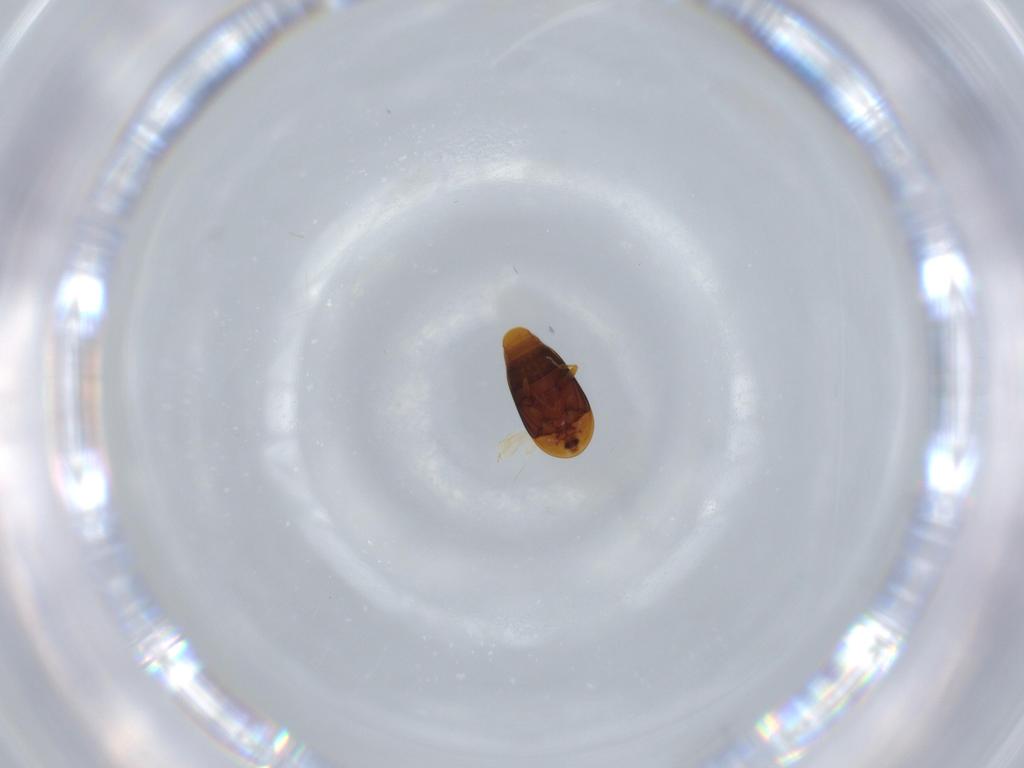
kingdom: Animalia
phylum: Arthropoda
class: Insecta
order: Coleoptera
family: Corylophidae
